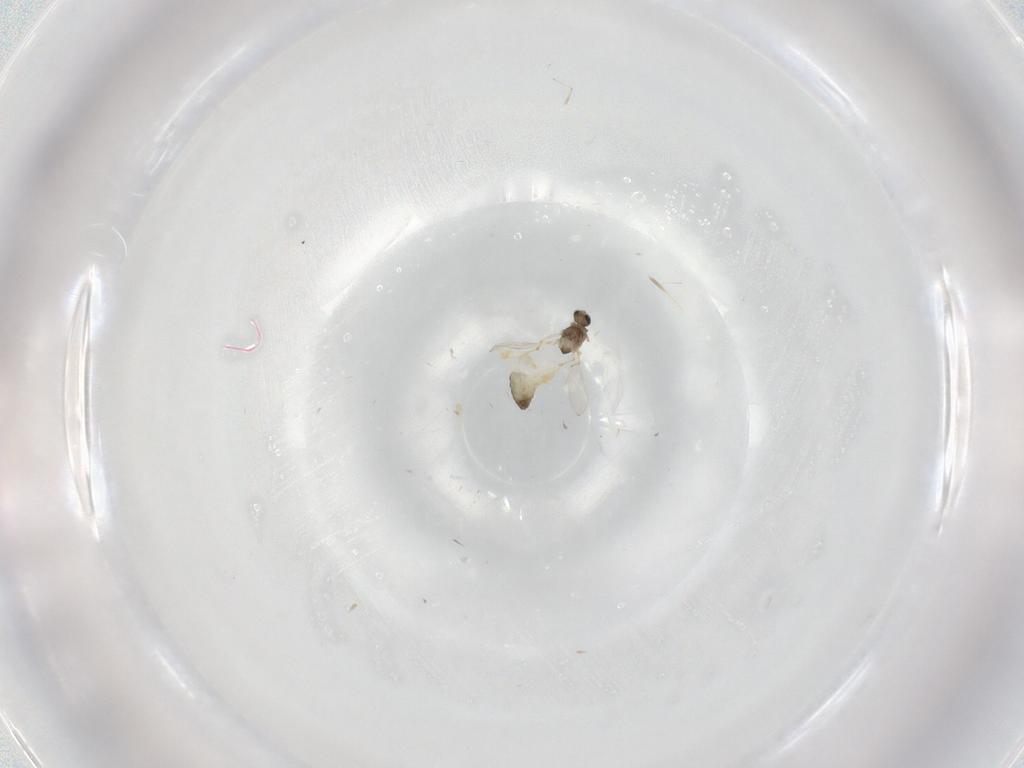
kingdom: Animalia
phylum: Arthropoda
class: Insecta
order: Diptera
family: Chironomidae
